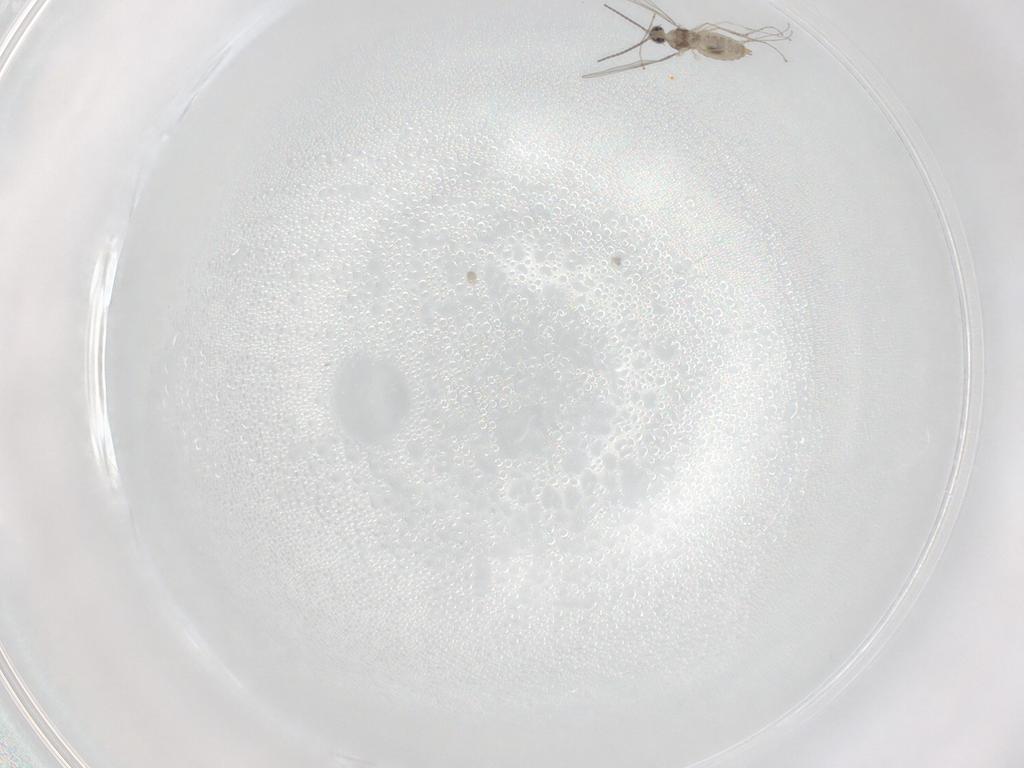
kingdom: Animalia
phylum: Arthropoda
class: Insecta
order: Diptera
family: Cecidomyiidae
